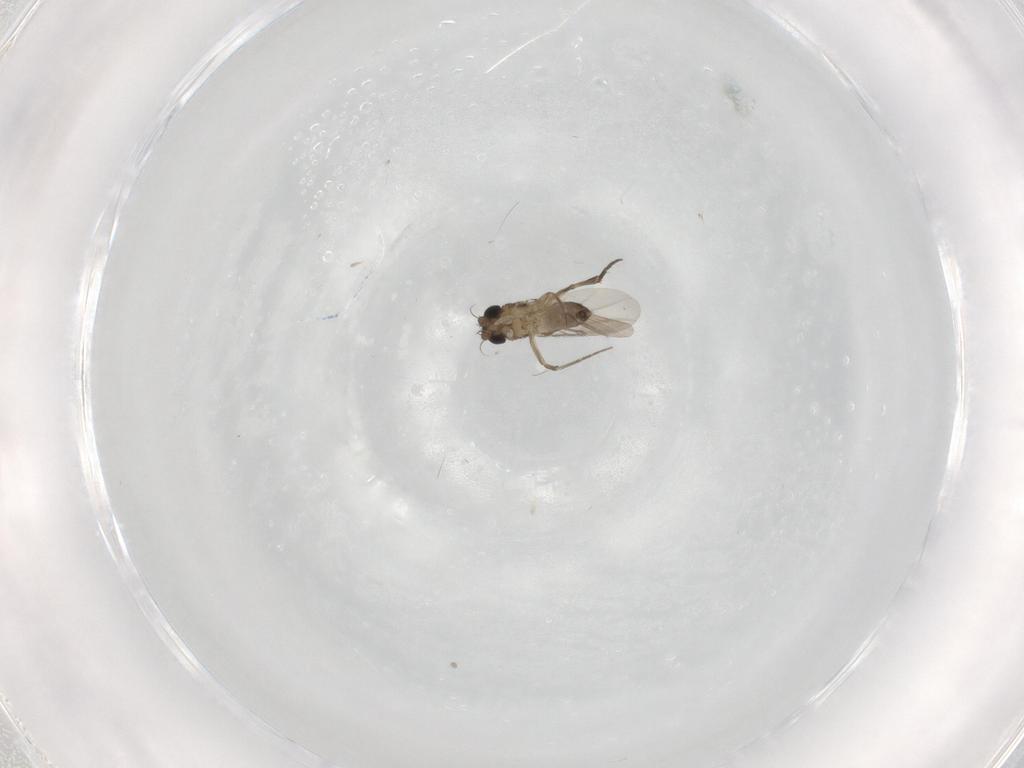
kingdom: Animalia
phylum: Arthropoda
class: Insecta
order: Diptera
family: Phoridae
